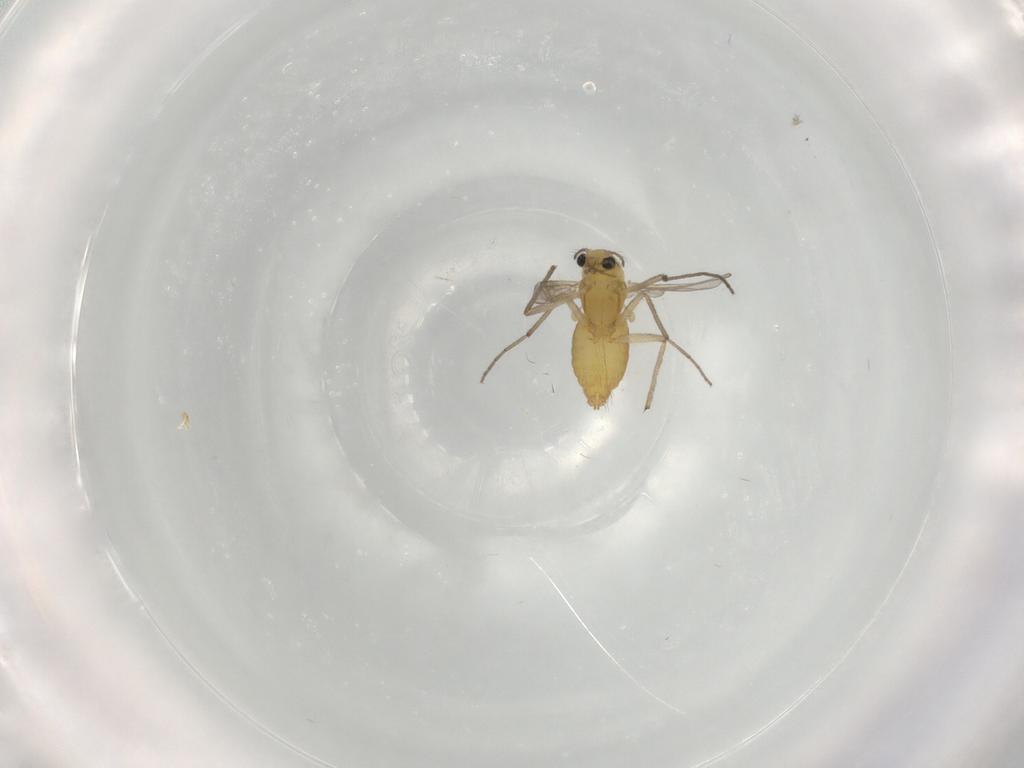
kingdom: Animalia
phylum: Arthropoda
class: Insecta
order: Diptera
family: Chironomidae
